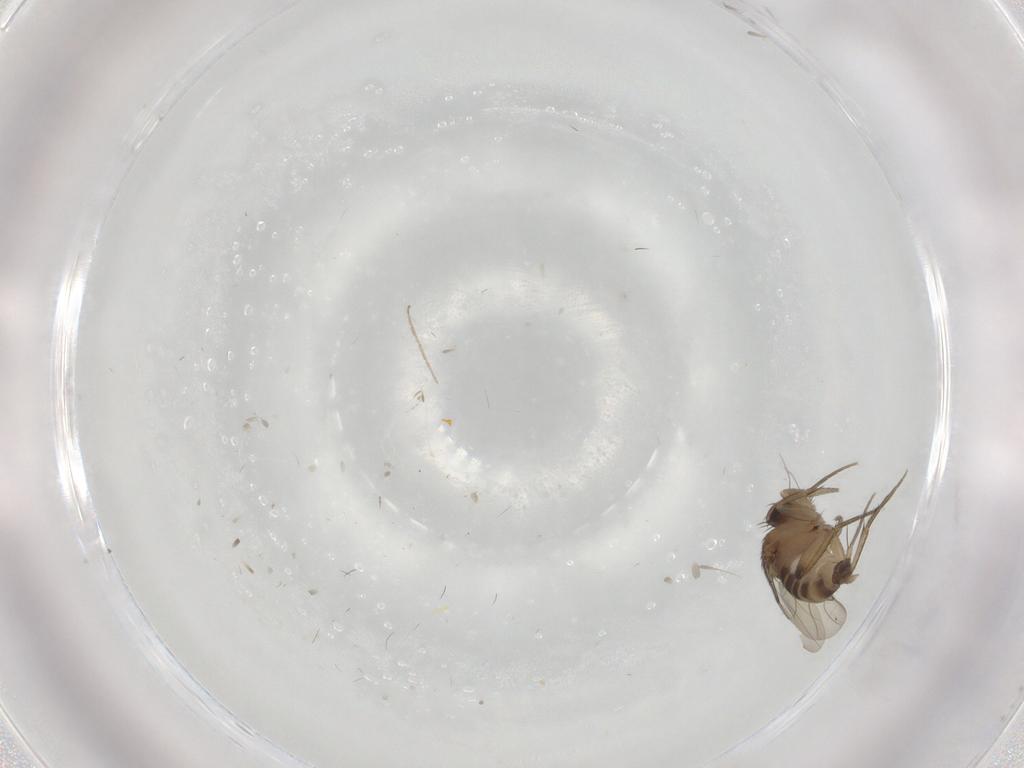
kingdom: Animalia
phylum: Arthropoda
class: Insecta
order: Diptera
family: Phoridae
